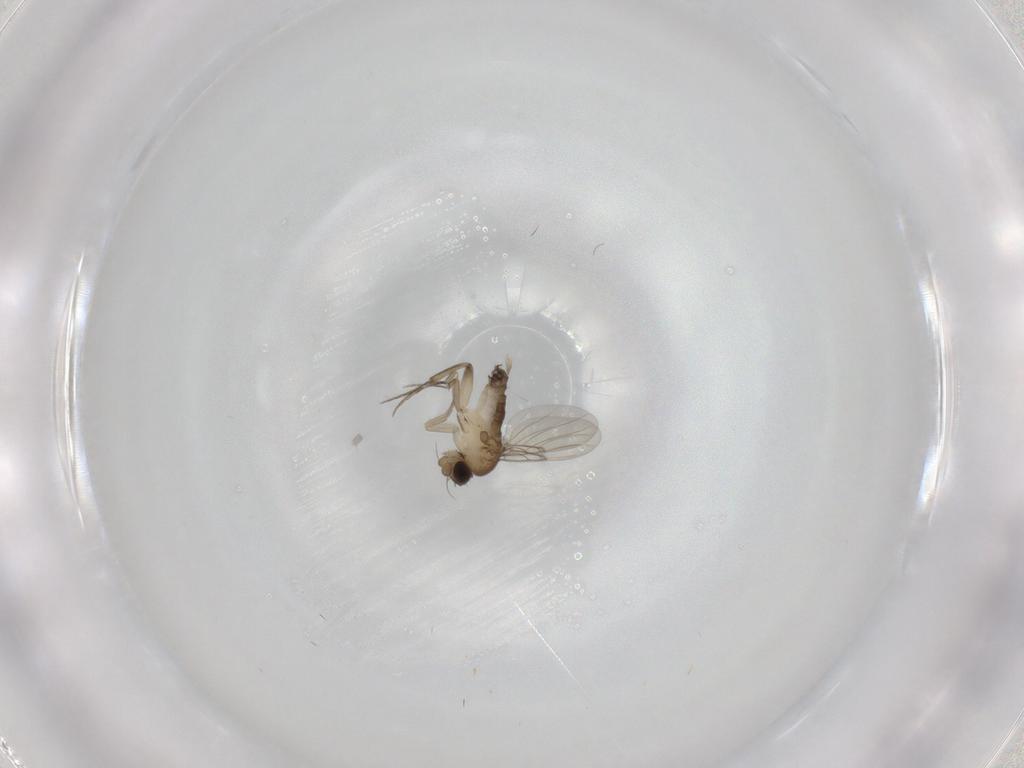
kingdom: Animalia
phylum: Arthropoda
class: Insecta
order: Diptera
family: Phoridae
